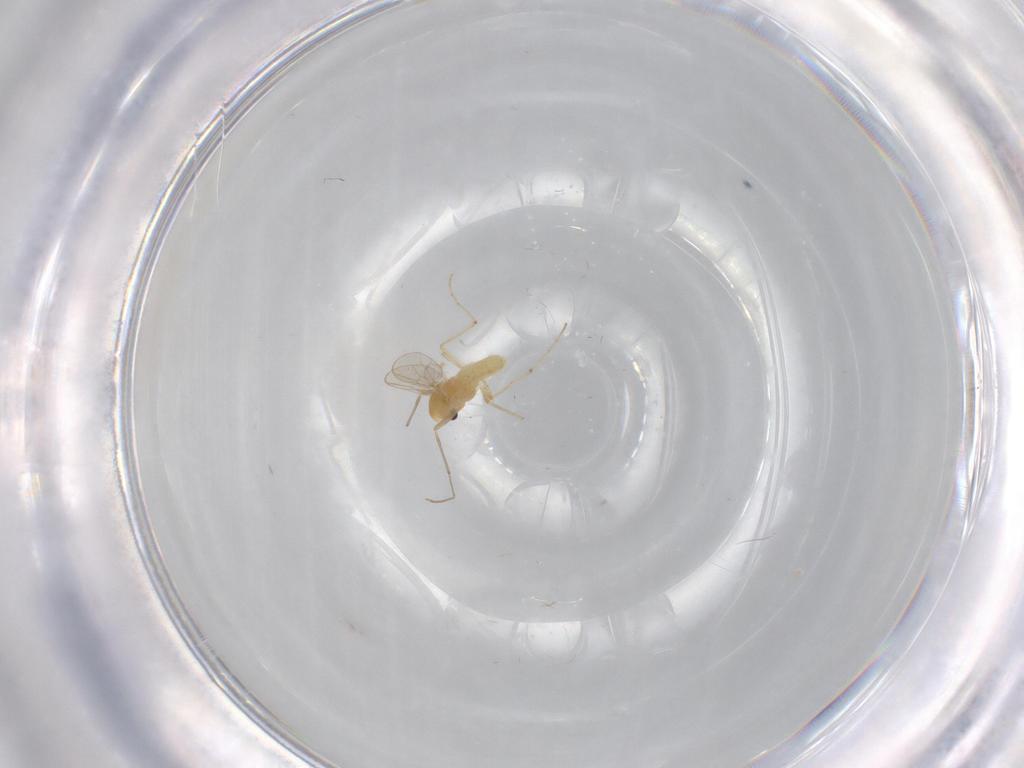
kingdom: Animalia
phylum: Arthropoda
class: Insecta
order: Diptera
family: Chironomidae
